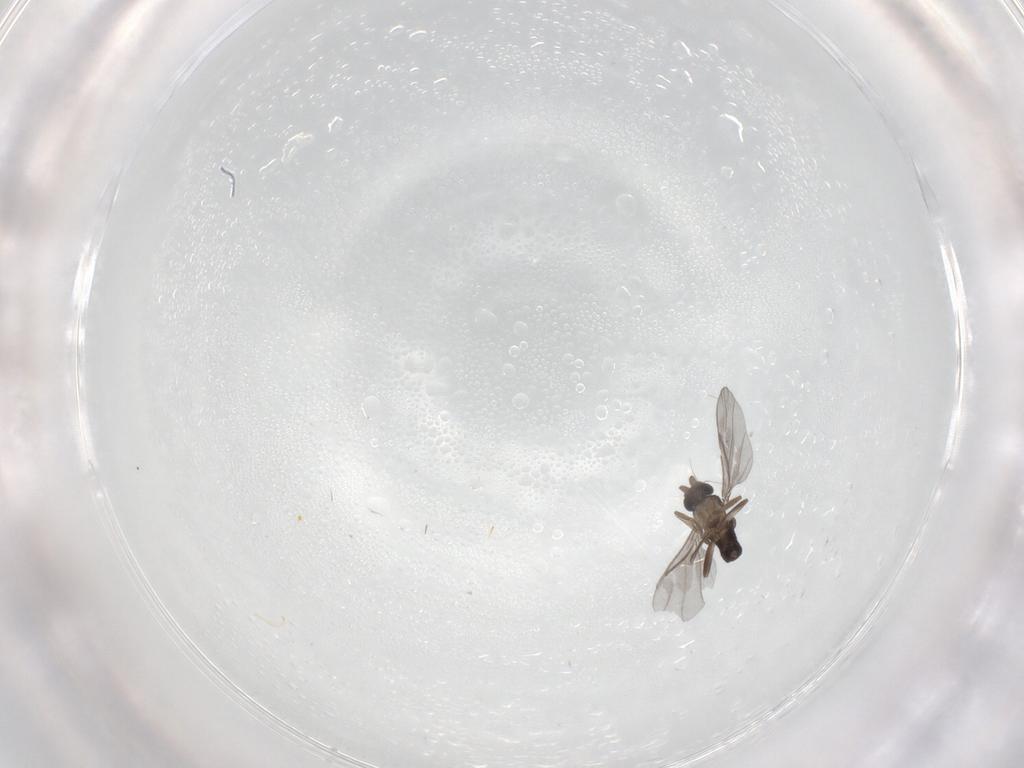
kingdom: Animalia
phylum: Arthropoda
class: Insecta
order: Diptera
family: Phoridae
